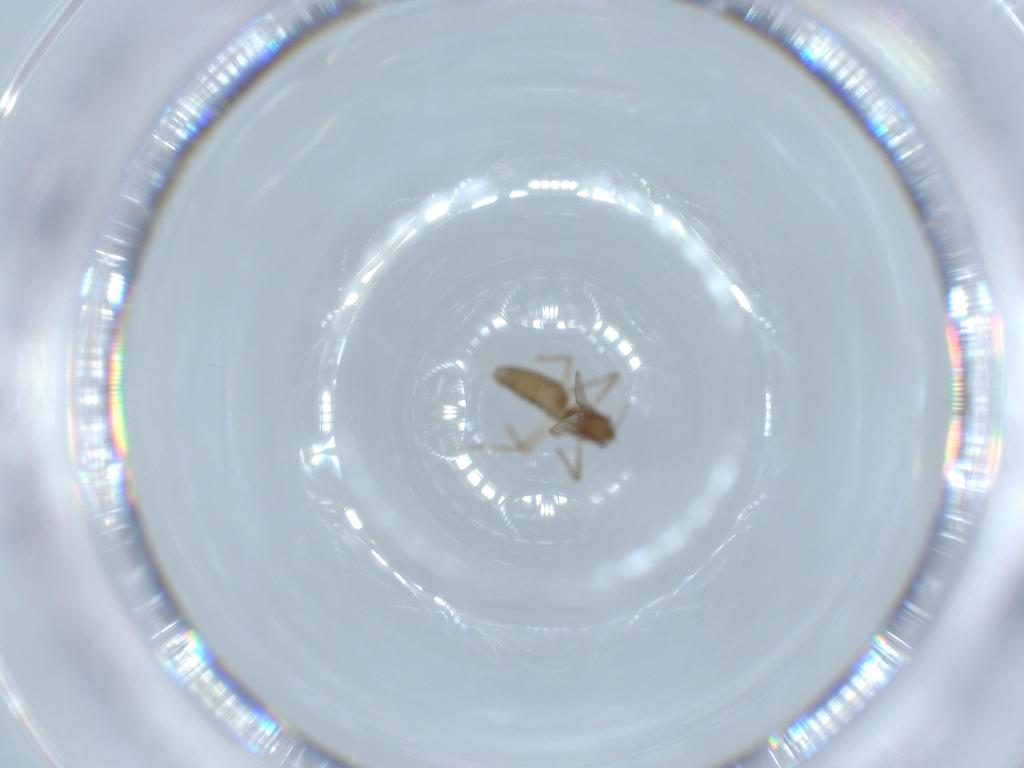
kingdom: Animalia
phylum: Arthropoda
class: Insecta
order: Diptera
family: Chironomidae
